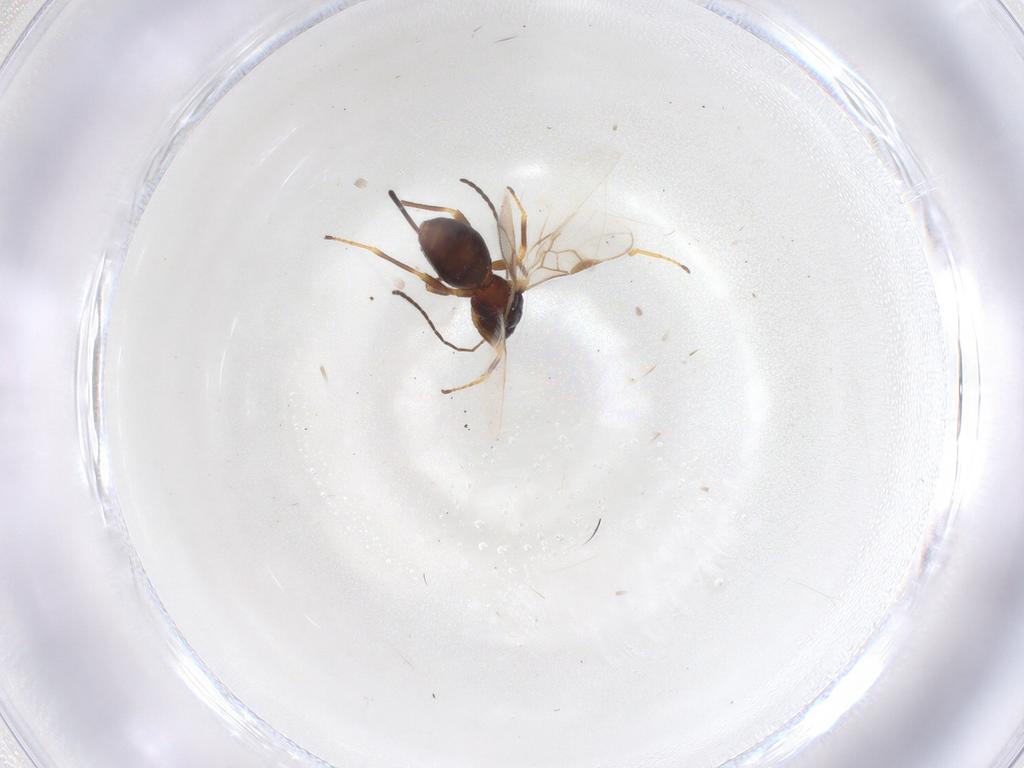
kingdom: Animalia
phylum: Arthropoda
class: Insecta
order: Hymenoptera
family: Braconidae
